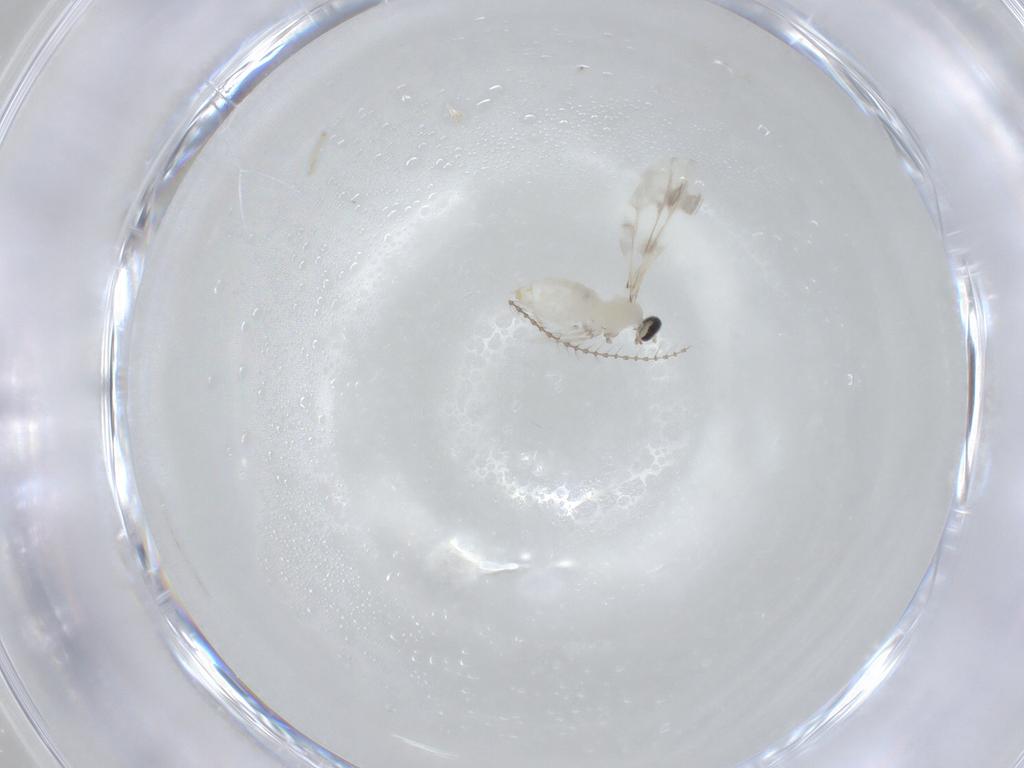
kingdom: Animalia
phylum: Arthropoda
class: Insecta
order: Diptera
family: Cecidomyiidae
